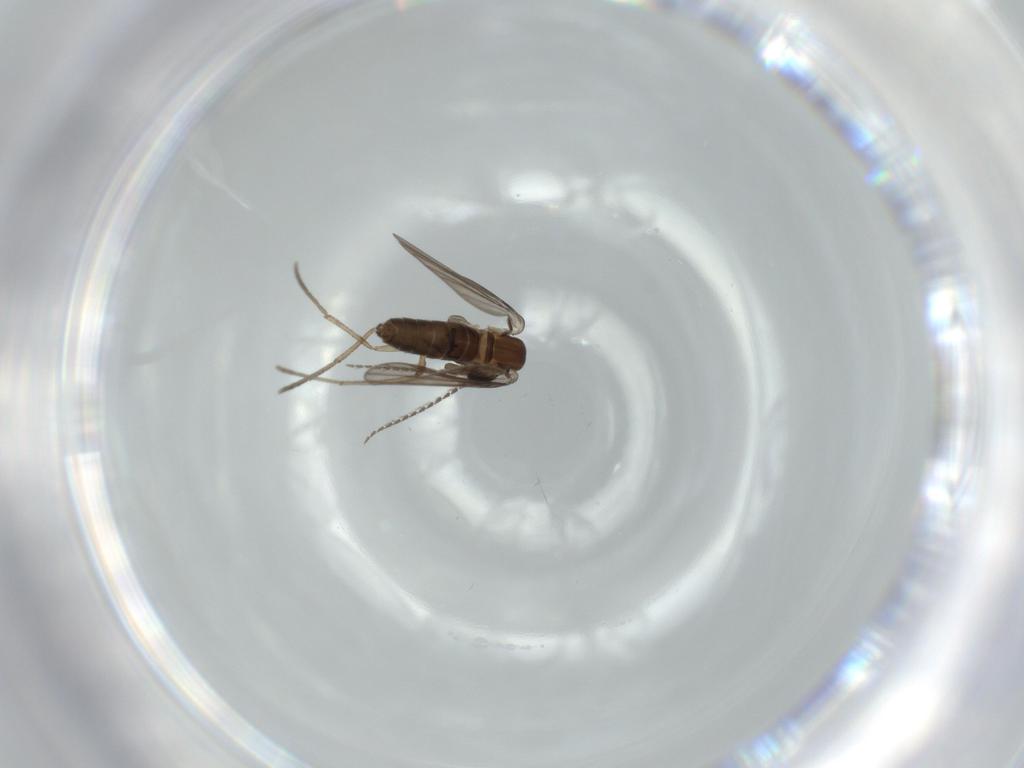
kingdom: Animalia
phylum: Arthropoda
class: Insecta
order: Diptera
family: Psychodidae
